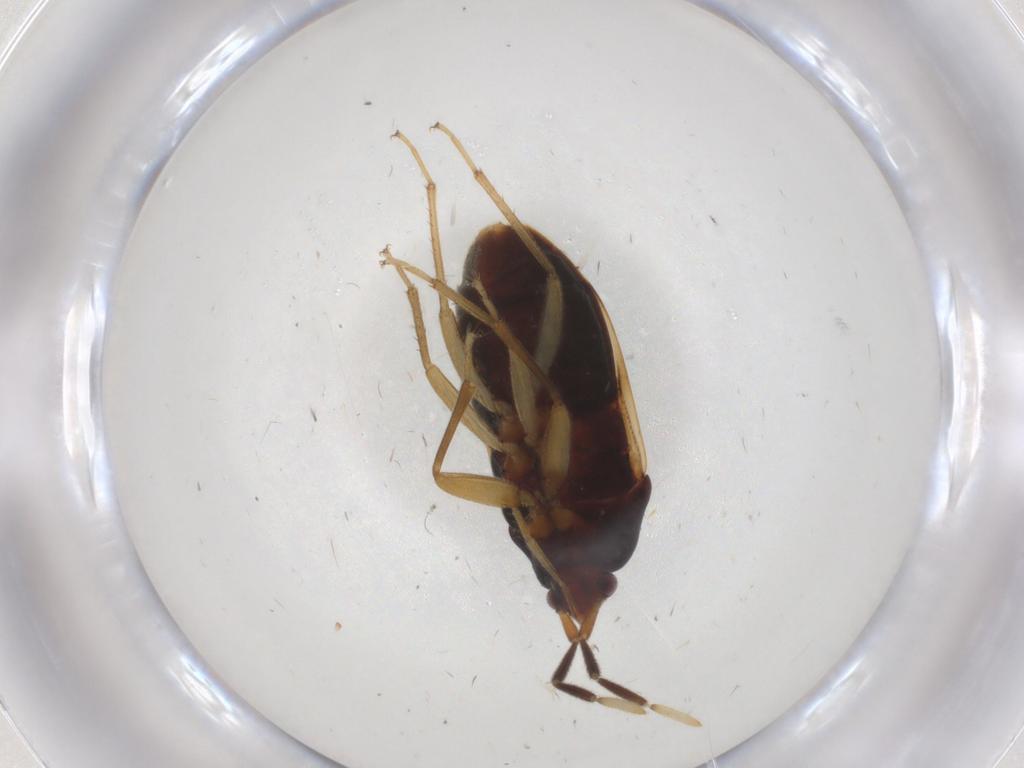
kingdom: Animalia
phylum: Arthropoda
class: Insecta
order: Hemiptera
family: Rhyparochromidae
